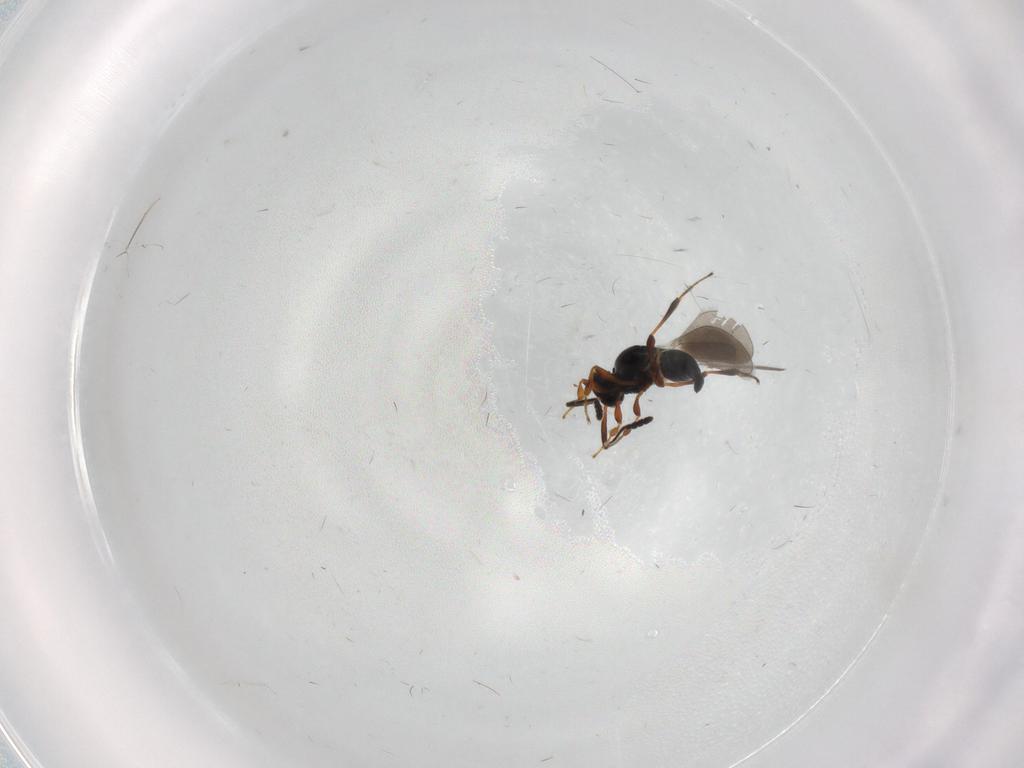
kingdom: Animalia
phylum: Arthropoda
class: Insecta
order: Hymenoptera
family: Platygastridae
